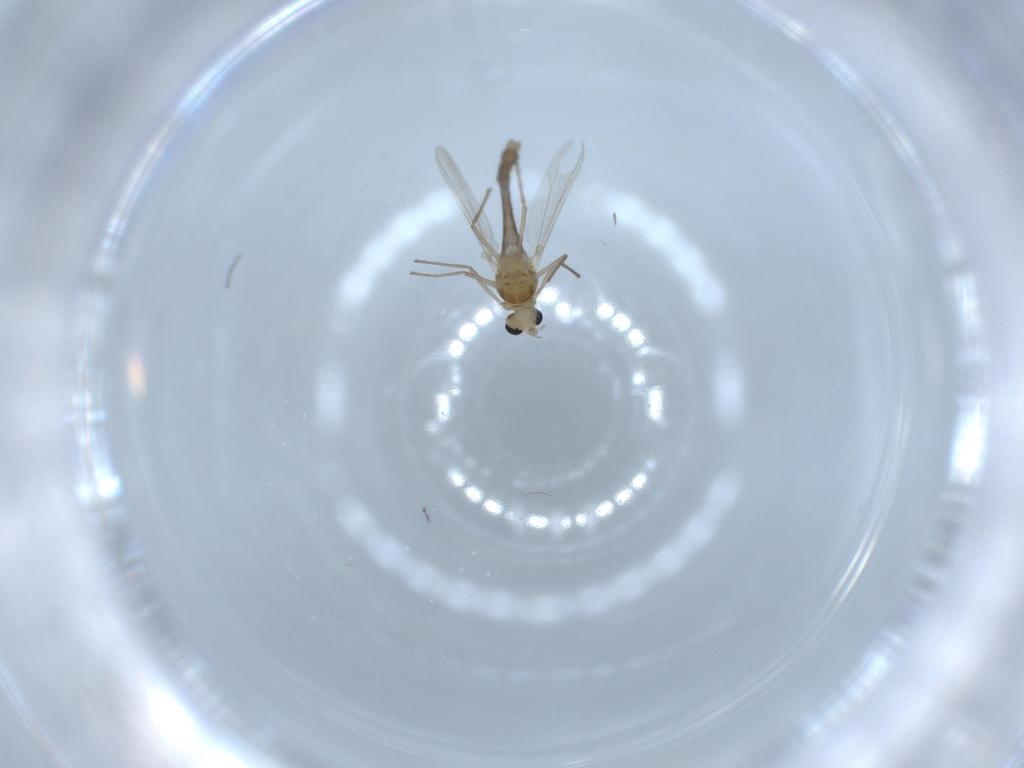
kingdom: Animalia
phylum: Arthropoda
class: Insecta
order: Diptera
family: Chironomidae
